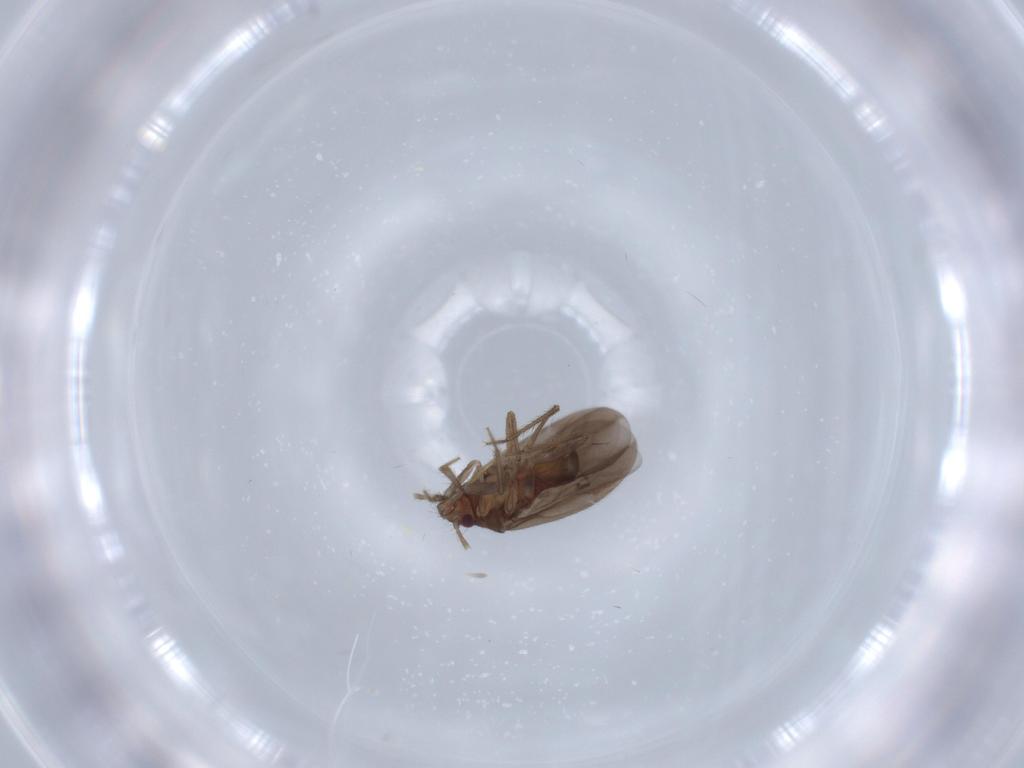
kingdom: Animalia
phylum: Arthropoda
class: Insecta
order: Hemiptera
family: Ceratocombidae
